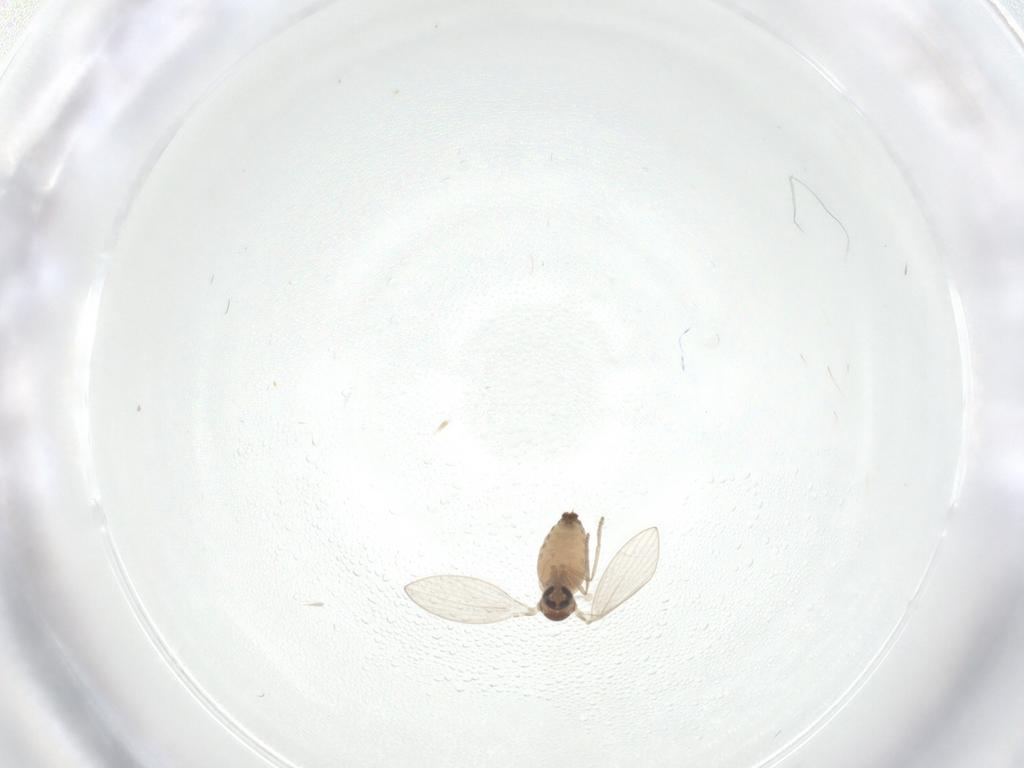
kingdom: Animalia
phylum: Arthropoda
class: Insecta
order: Diptera
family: Psychodidae
